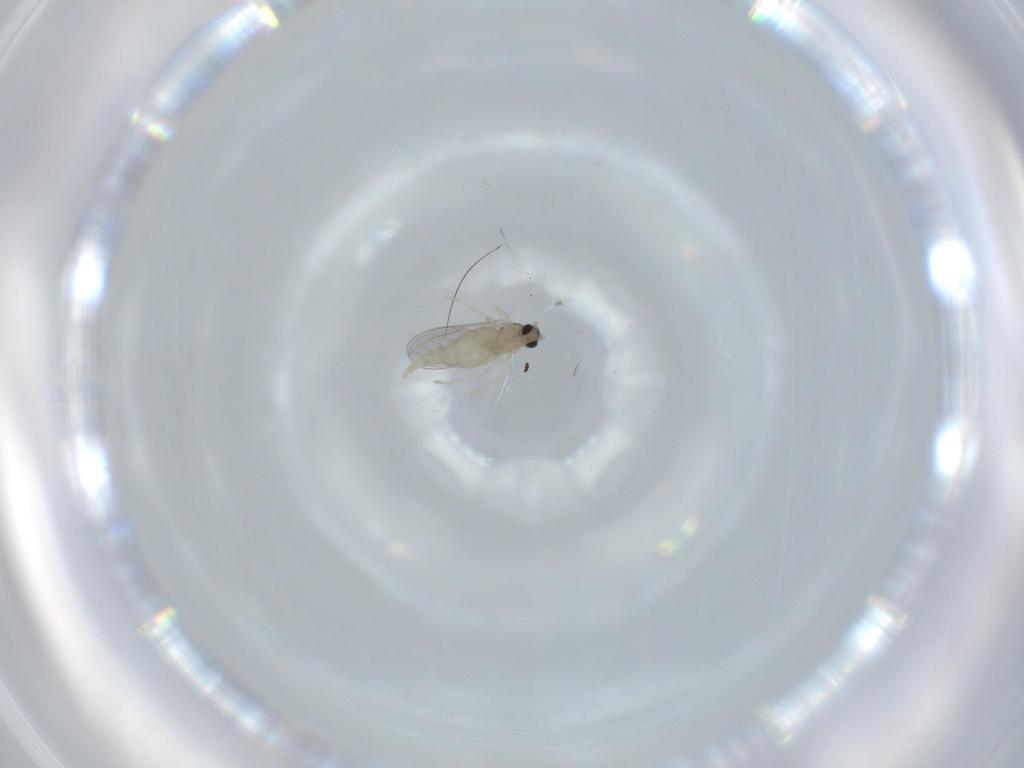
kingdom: Animalia
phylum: Arthropoda
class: Insecta
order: Diptera
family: Cecidomyiidae
